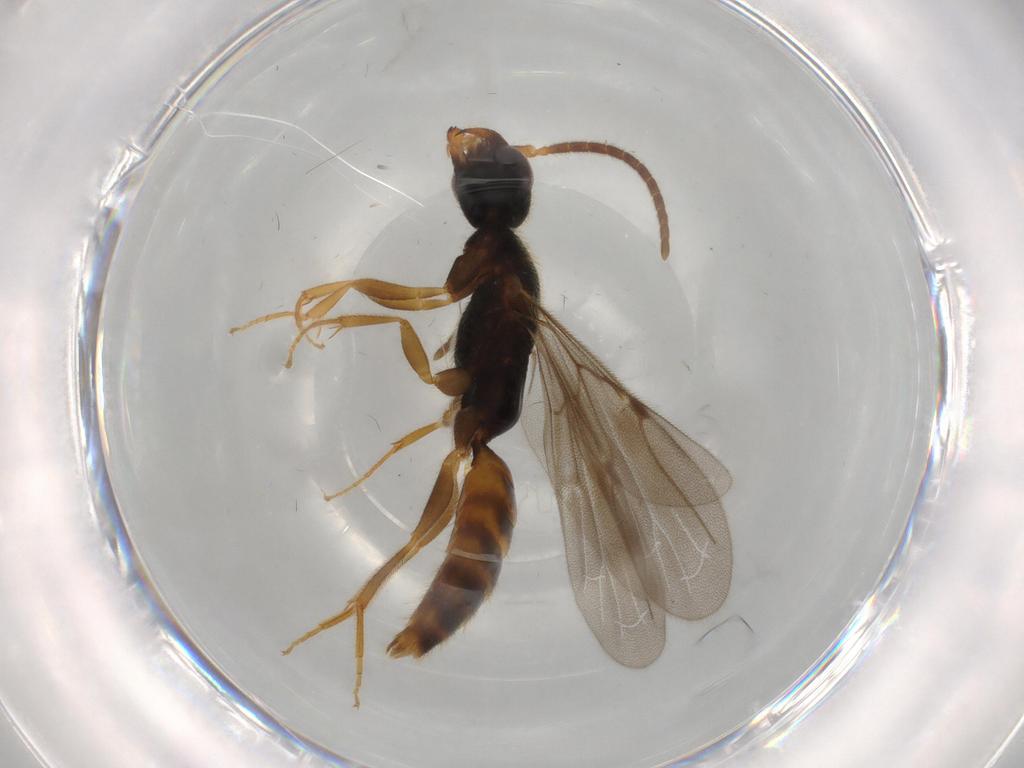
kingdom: Animalia
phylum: Arthropoda
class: Insecta
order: Hymenoptera
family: Bethylidae
